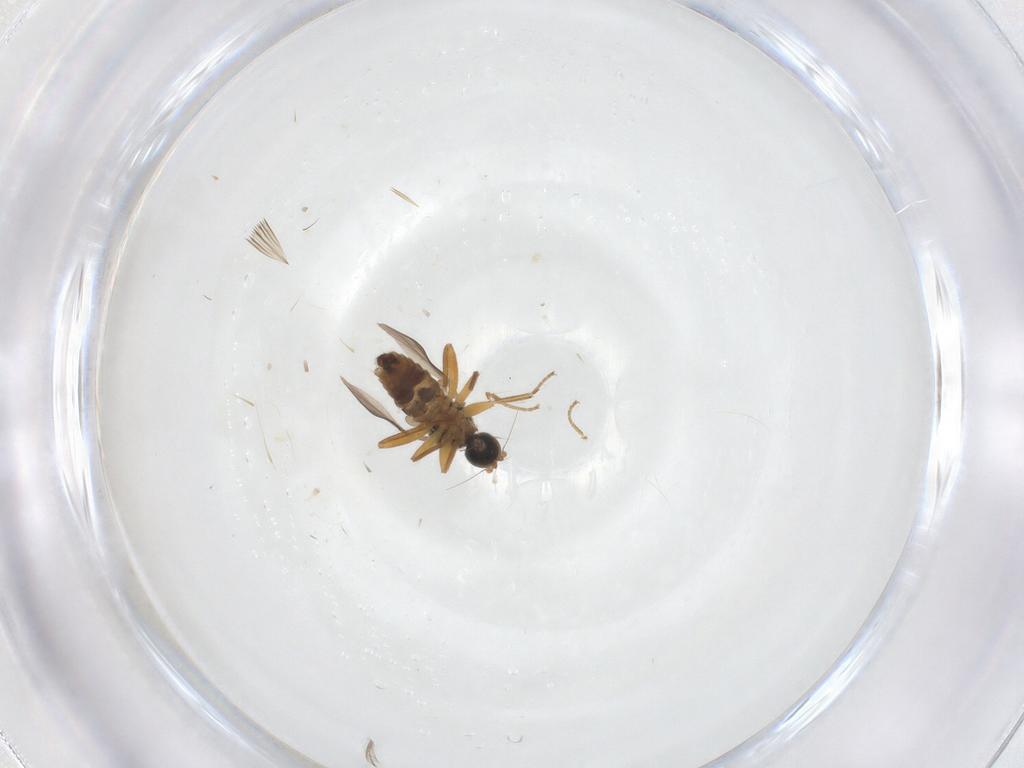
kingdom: Animalia
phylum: Arthropoda
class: Insecta
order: Diptera
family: Hybotidae
